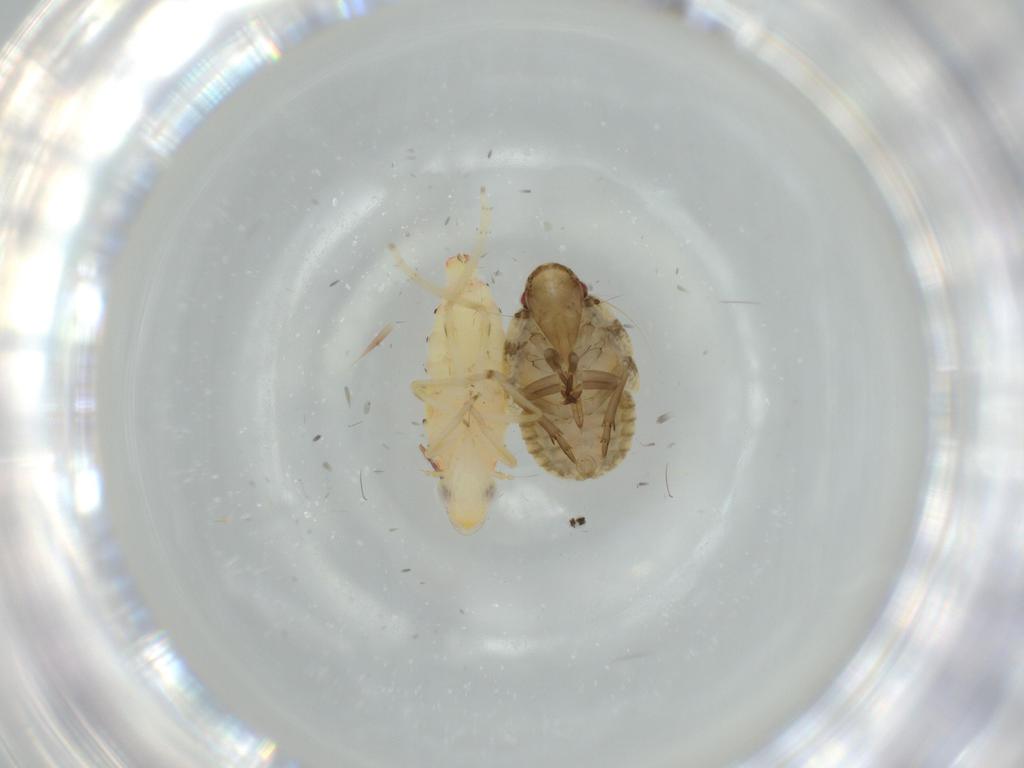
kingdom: Animalia
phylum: Arthropoda
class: Insecta
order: Hemiptera
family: Tropiduchidae
